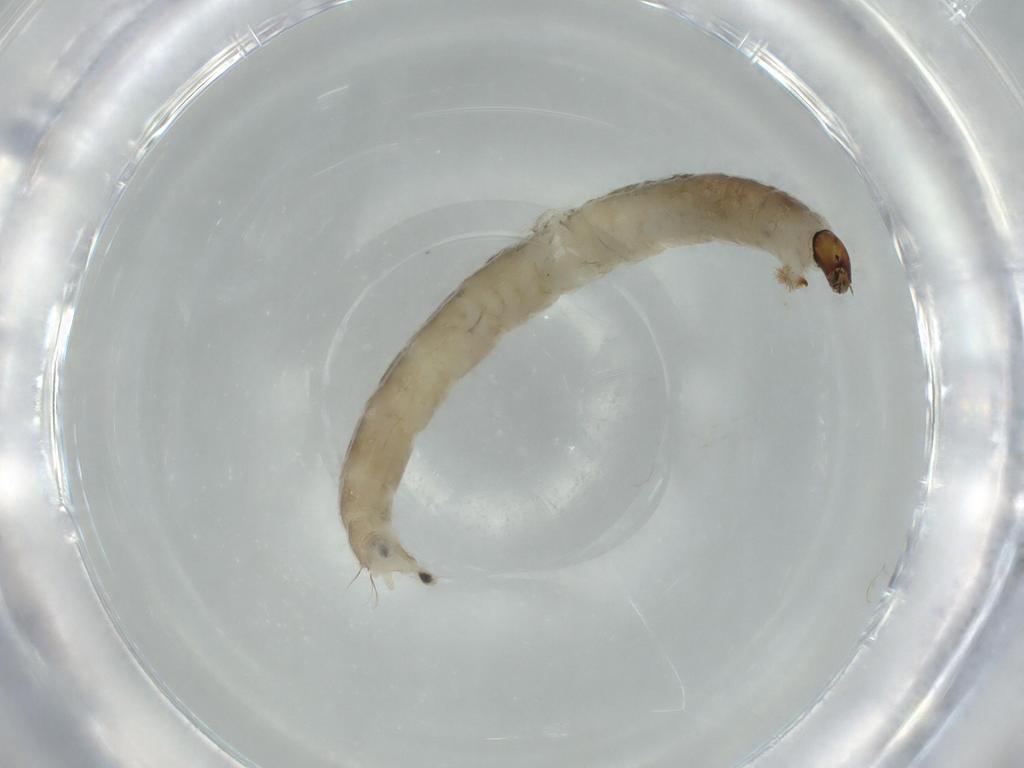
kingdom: Animalia
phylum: Arthropoda
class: Insecta
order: Diptera
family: Chironomidae
